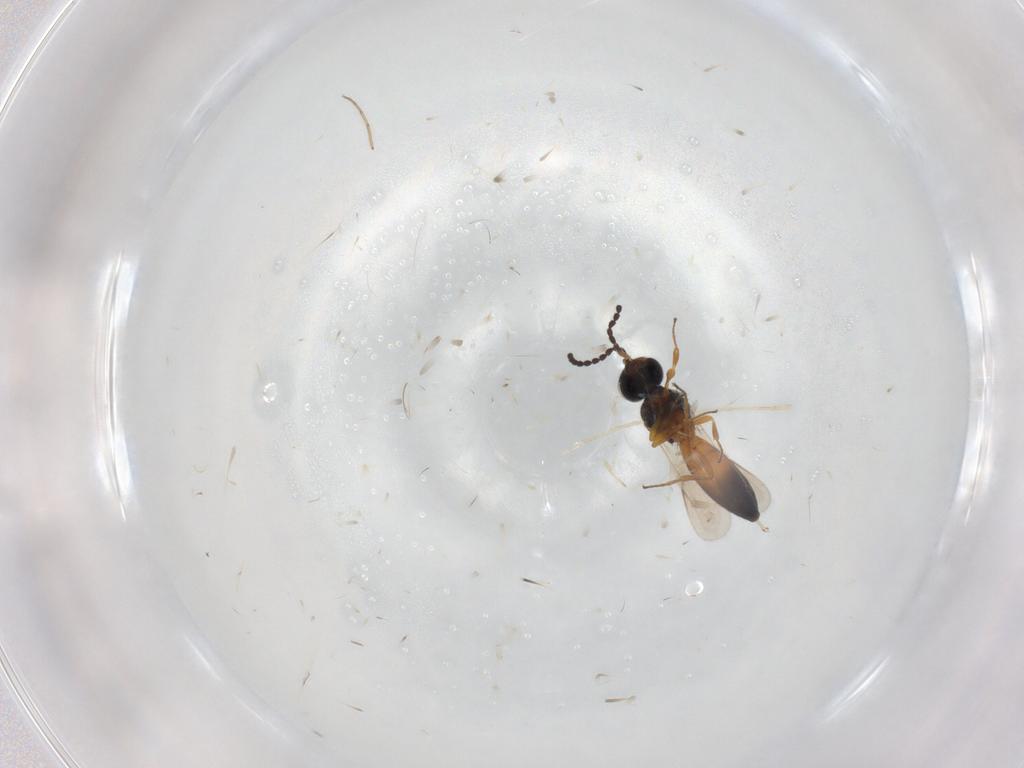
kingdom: Animalia
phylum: Arthropoda
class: Insecta
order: Hymenoptera
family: Scelionidae
